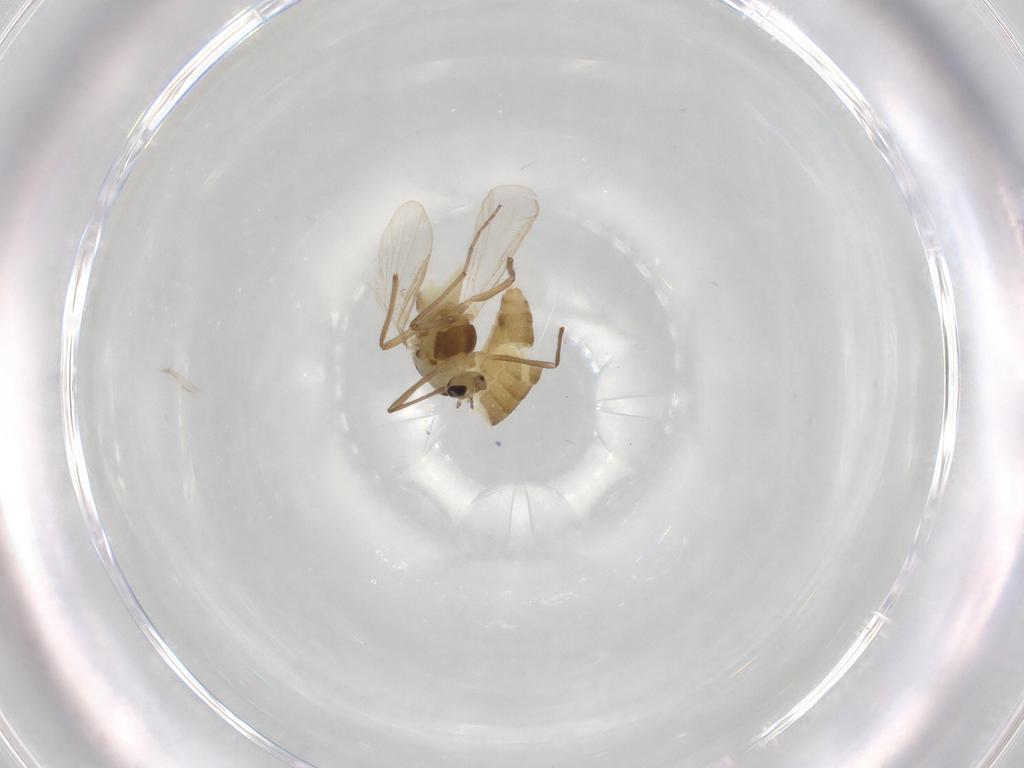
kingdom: Animalia
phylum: Arthropoda
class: Insecta
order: Diptera
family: Chironomidae
